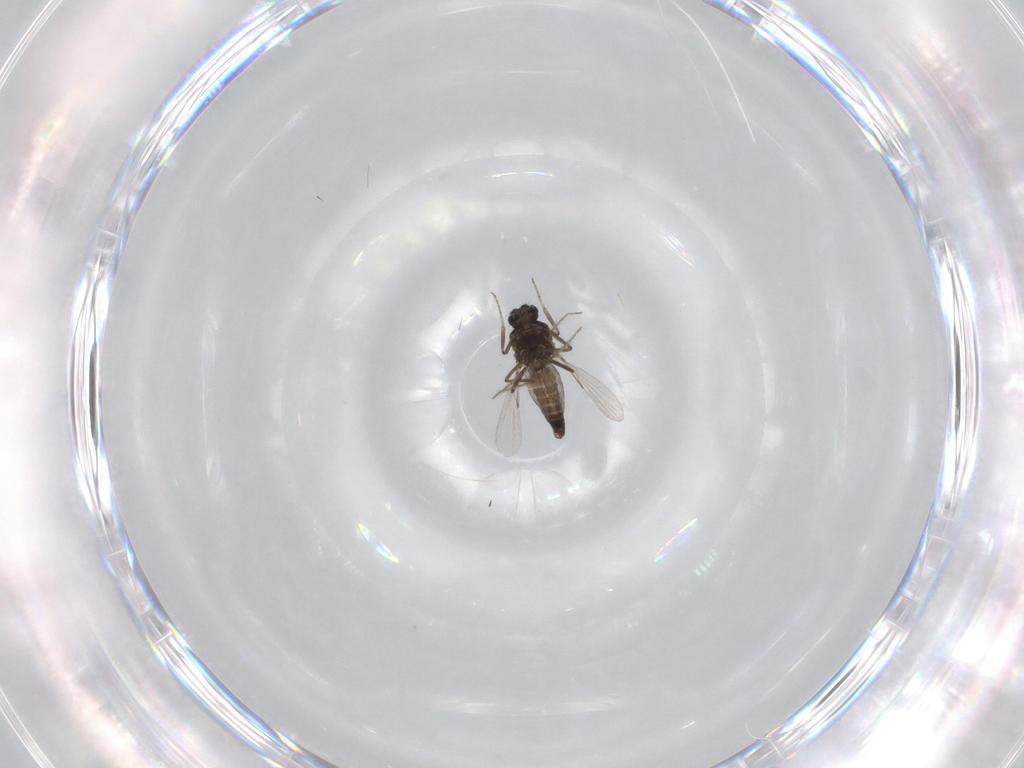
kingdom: Animalia
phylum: Arthropoda
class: Insecta
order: Diptera
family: Ceratopogonidae
